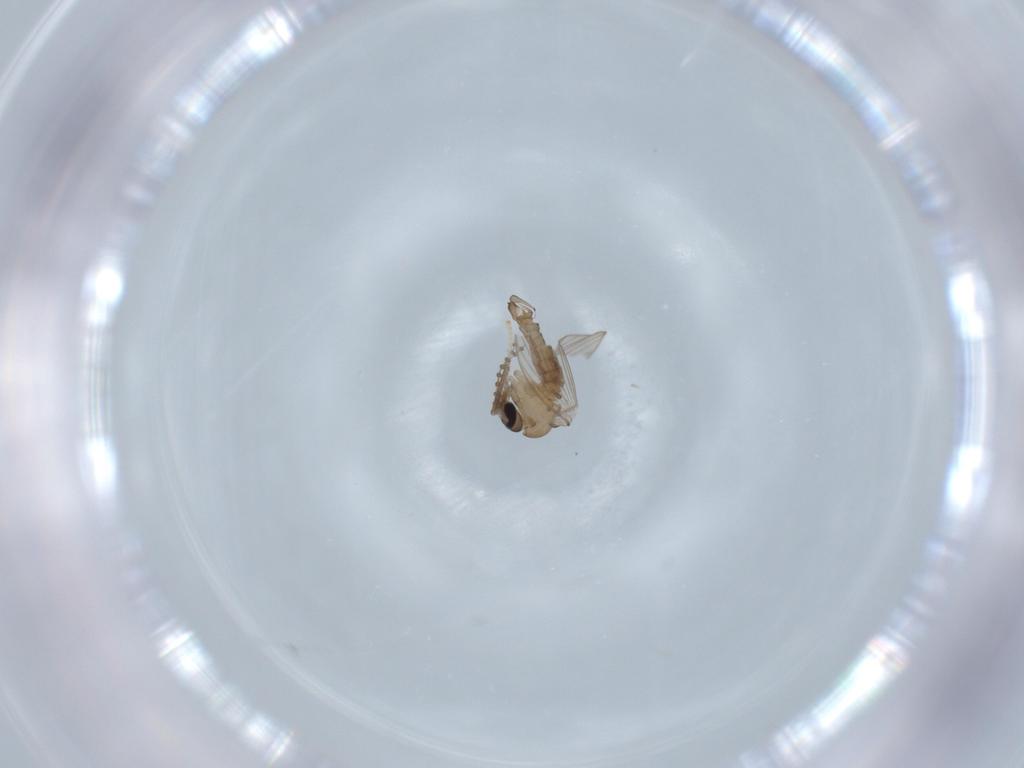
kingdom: Animalia
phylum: Arthropoda
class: Insecta
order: Diptera
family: Psychodidae
